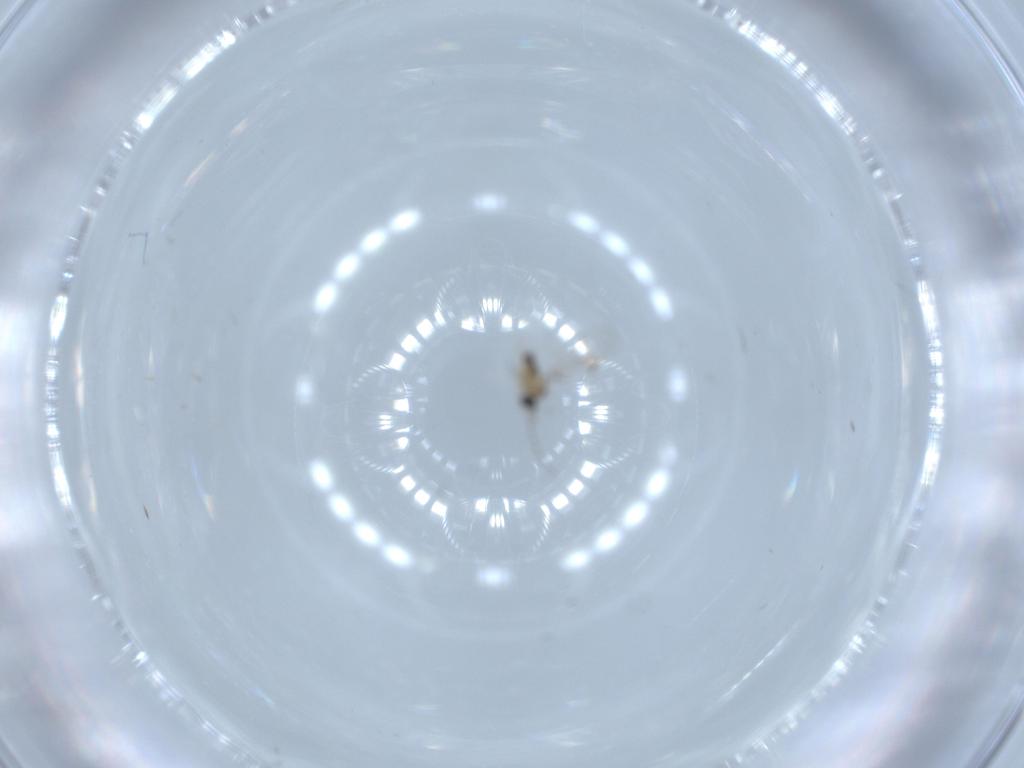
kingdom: Animalia
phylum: Arthropoda
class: Insecta
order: Diptera
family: Cecidomyiidae
